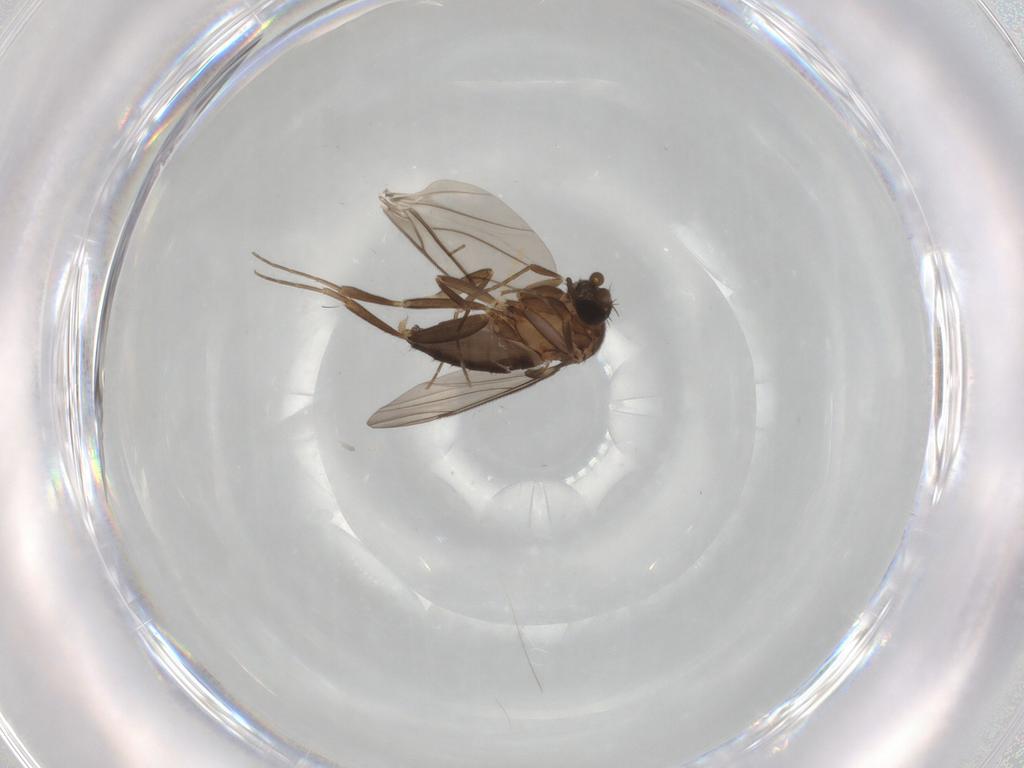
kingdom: Animalia
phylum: Arthropoda
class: Insecta
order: Diptera
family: Chironomidae
